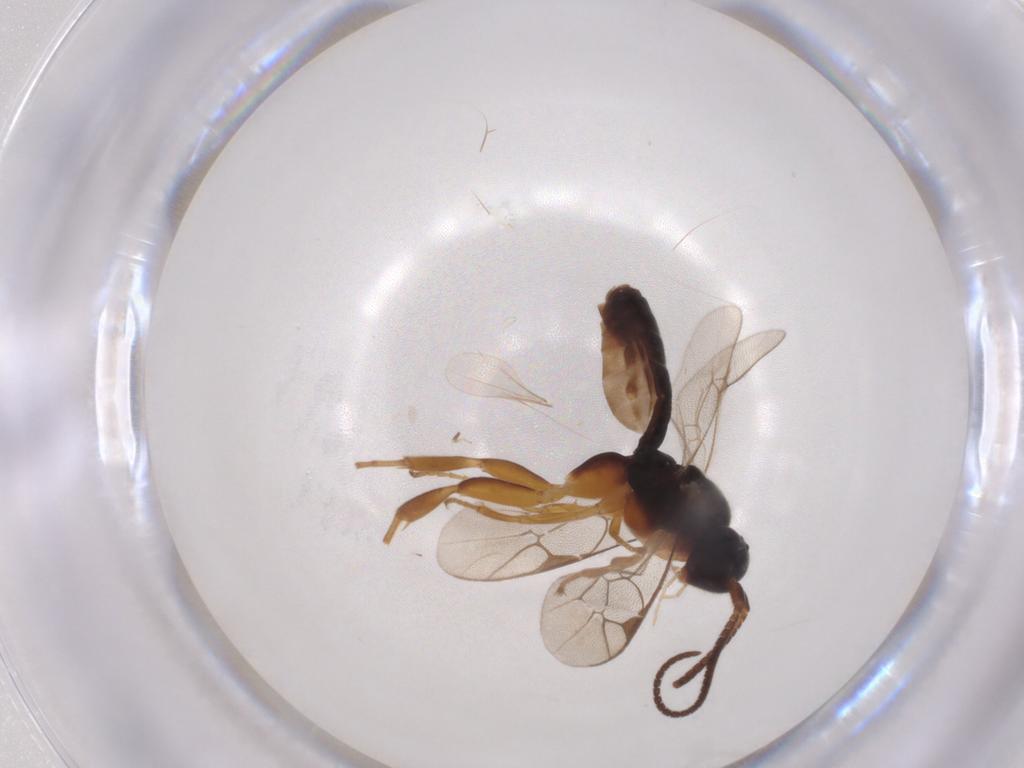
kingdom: Animalia
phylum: Arthropoda
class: Insecta
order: Hymenoptera
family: Ichneumonidae
